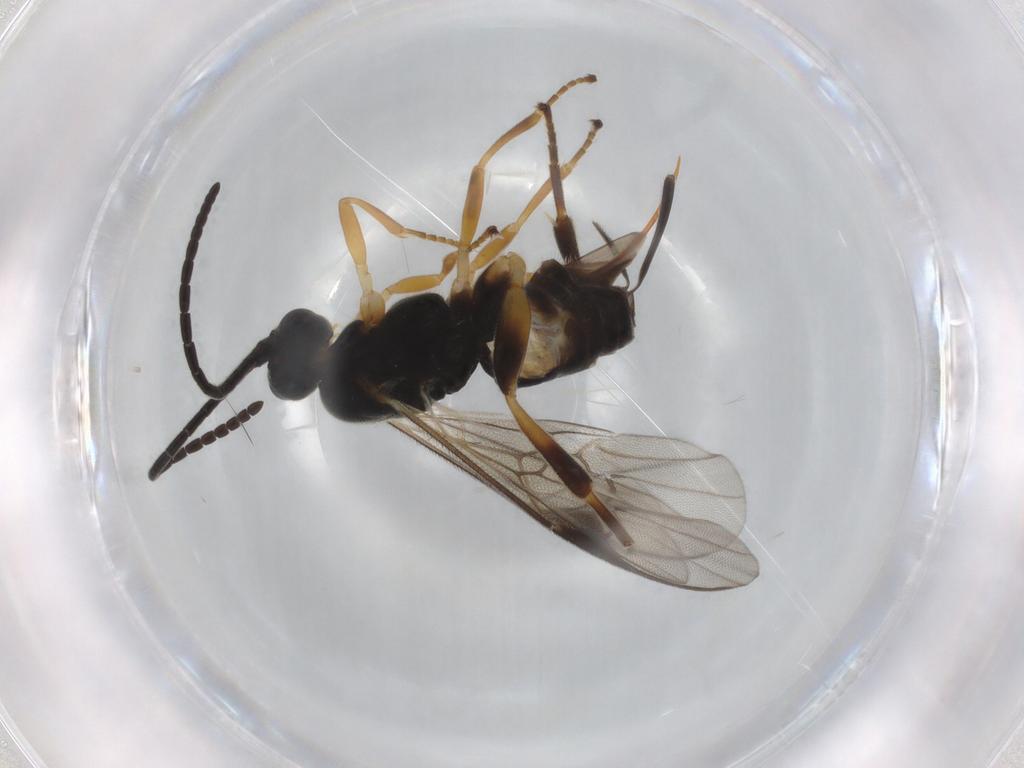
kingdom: Animalia
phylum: Arthropoda
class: Insecta
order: Hymenoptera
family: Braconidae
